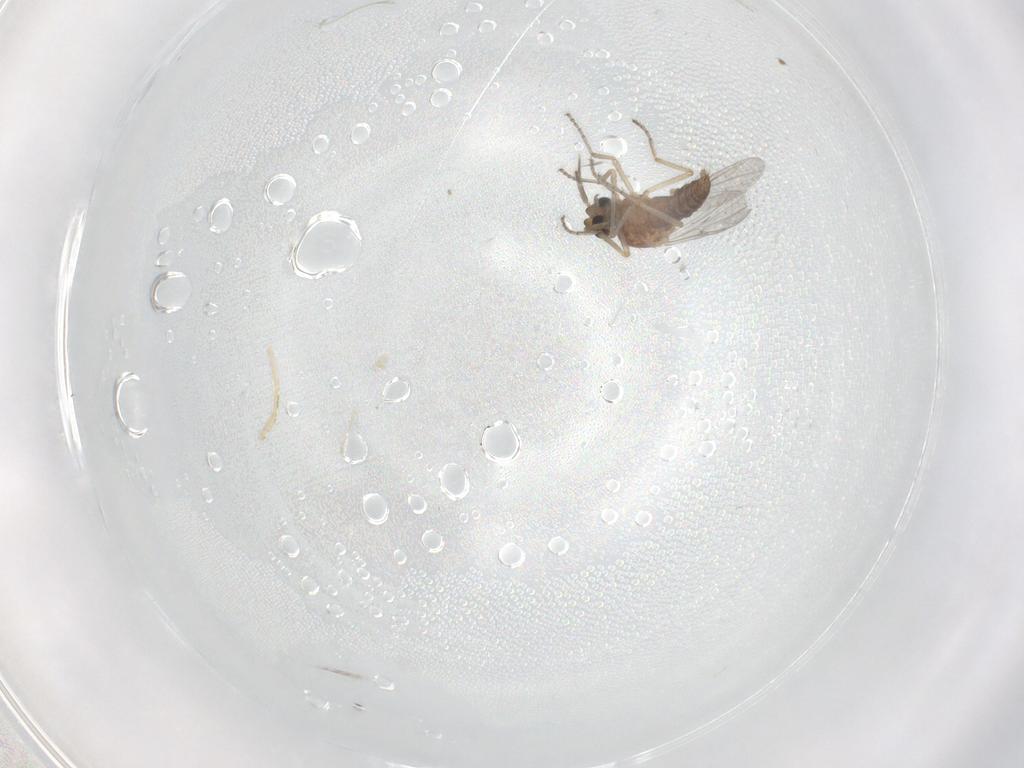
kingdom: Animalia
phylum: Arthropoda
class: Insecta
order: Diptera
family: Ceratopogonidae
